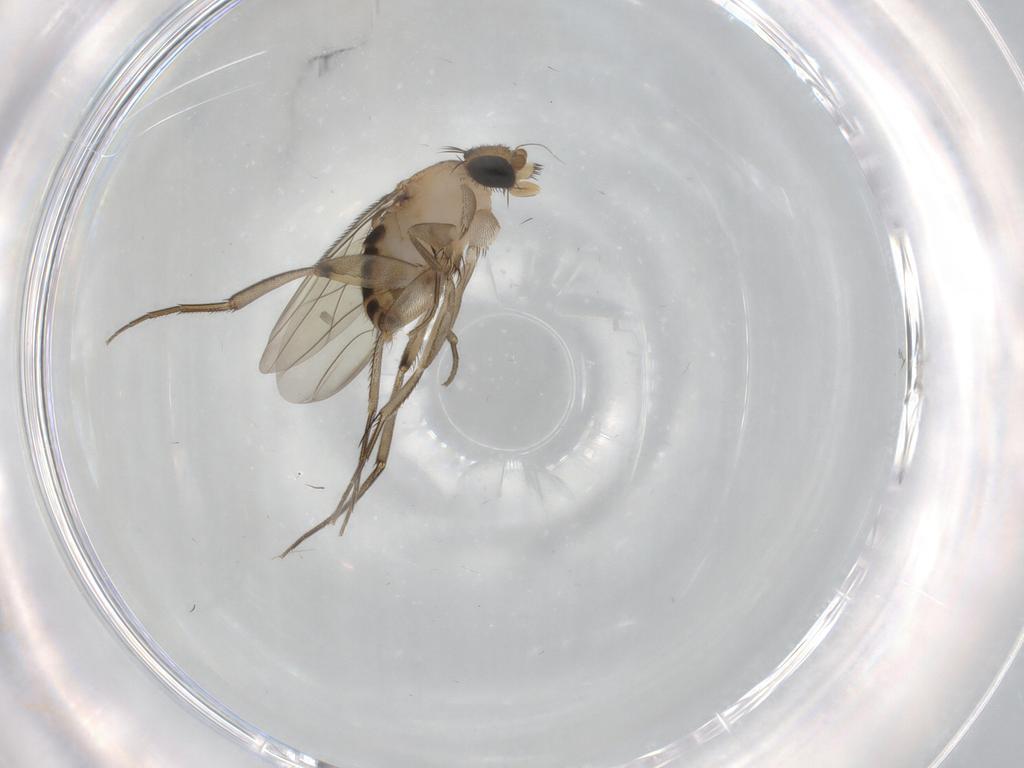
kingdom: Animalia
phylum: Arthropoda
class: Insecta
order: Diptera
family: Phoridae
